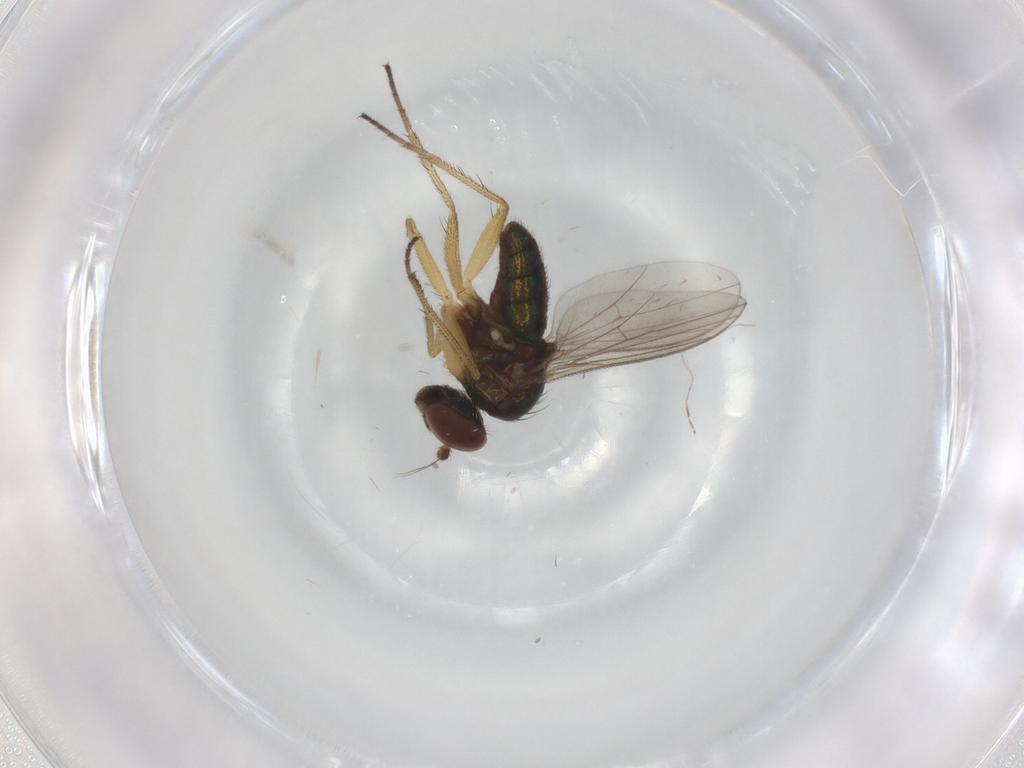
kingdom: Animalia
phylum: Arthropoda
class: Insecta
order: Diptera
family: Dolichopodidae
